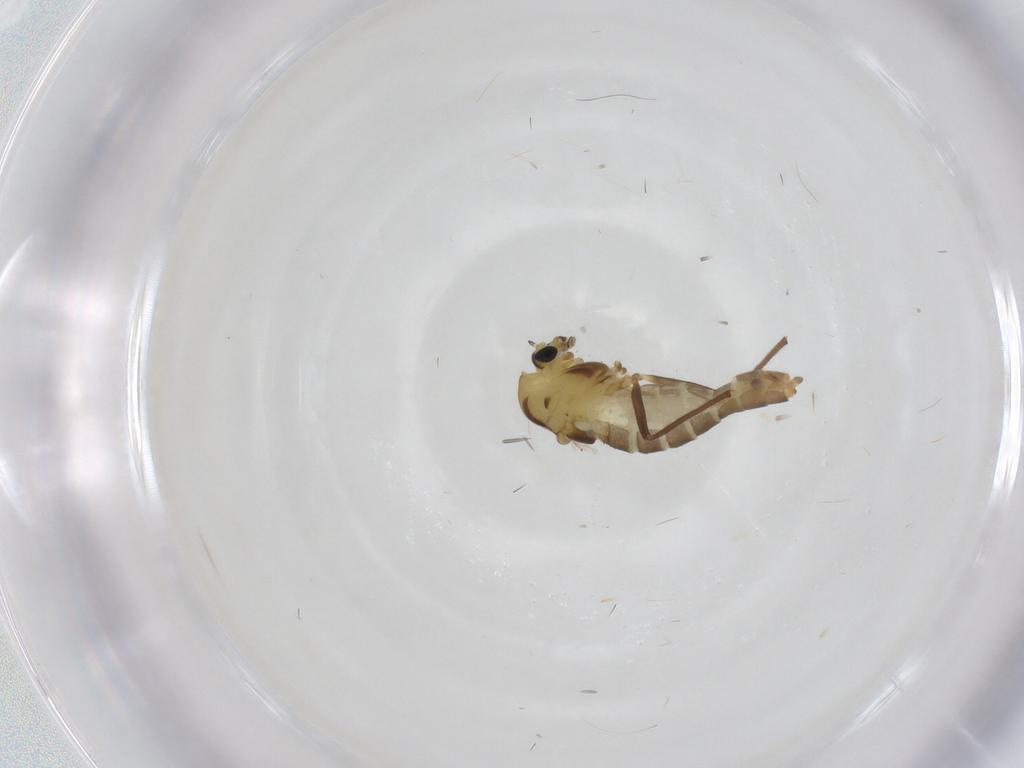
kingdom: Animalia
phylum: Arthropoda
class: Insecta
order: Diptera
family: Chironomidae
